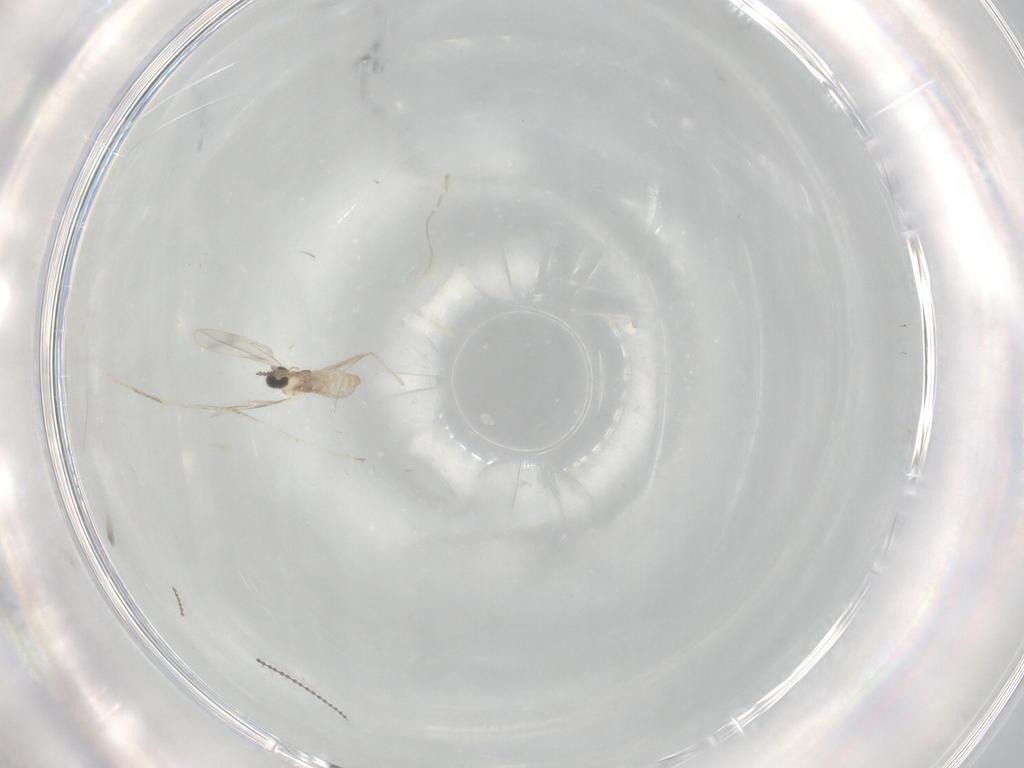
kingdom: Animalia
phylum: Arthropoda
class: Insecta
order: Diptera
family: Cecidomyiidae
